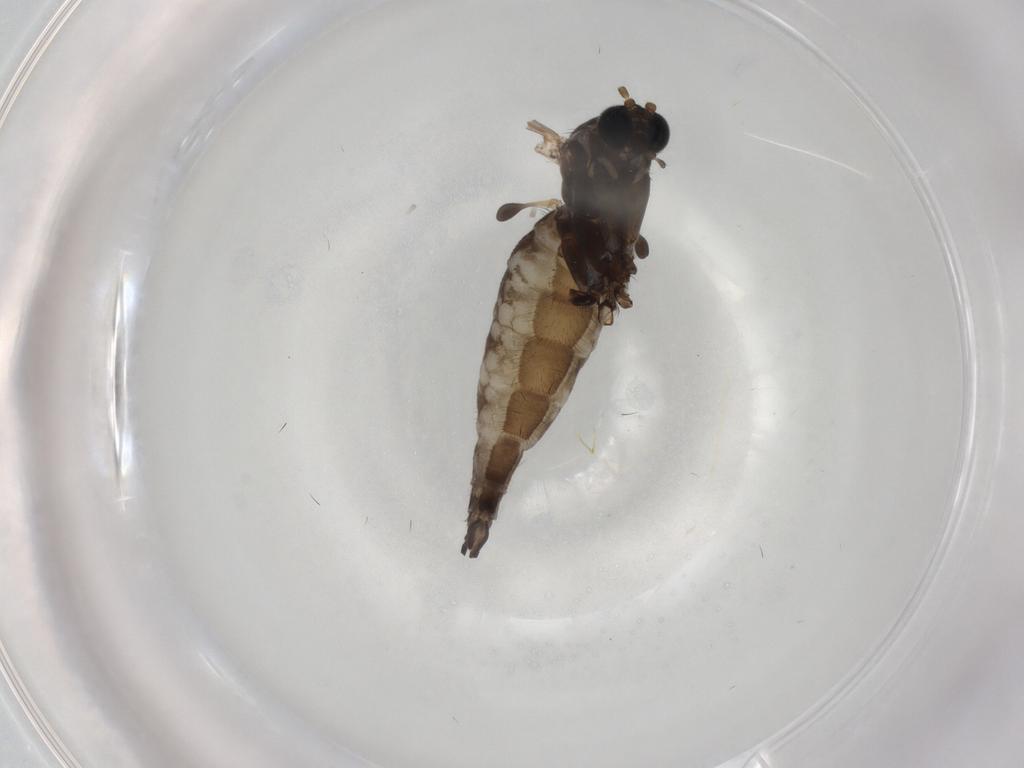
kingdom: Animalia
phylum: Arthropoda
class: Insecta
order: Diptera
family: Sciaridae
